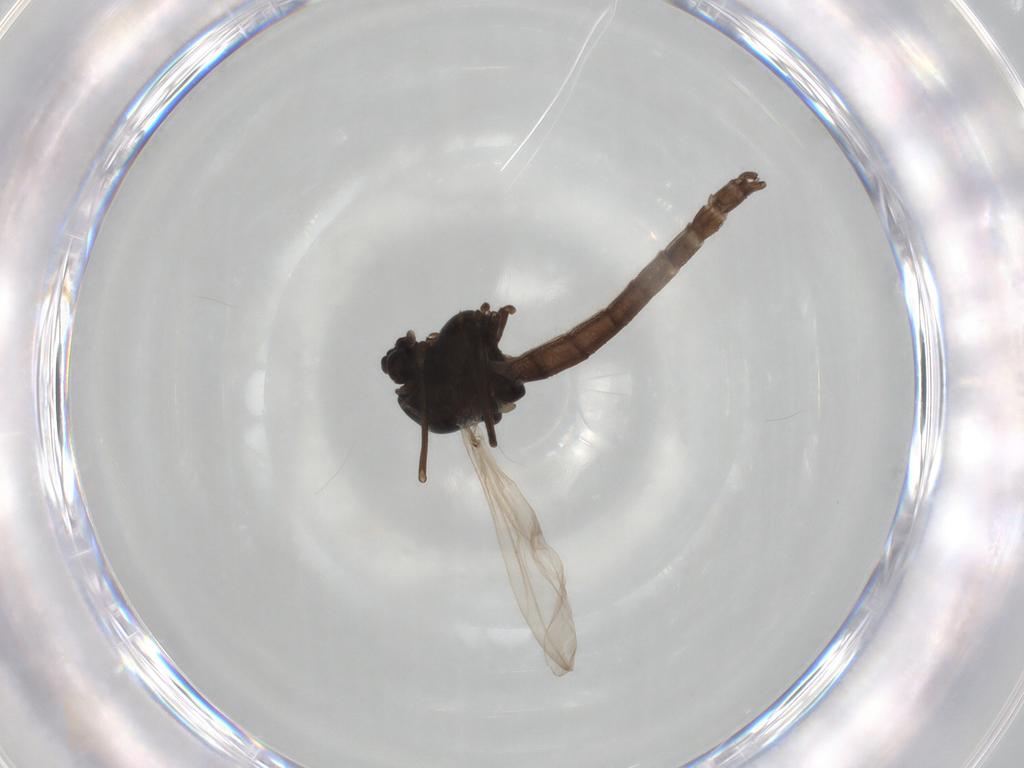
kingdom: Animalia
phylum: Arthropoda
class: Insecta
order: Diptera
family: Chironomidae
